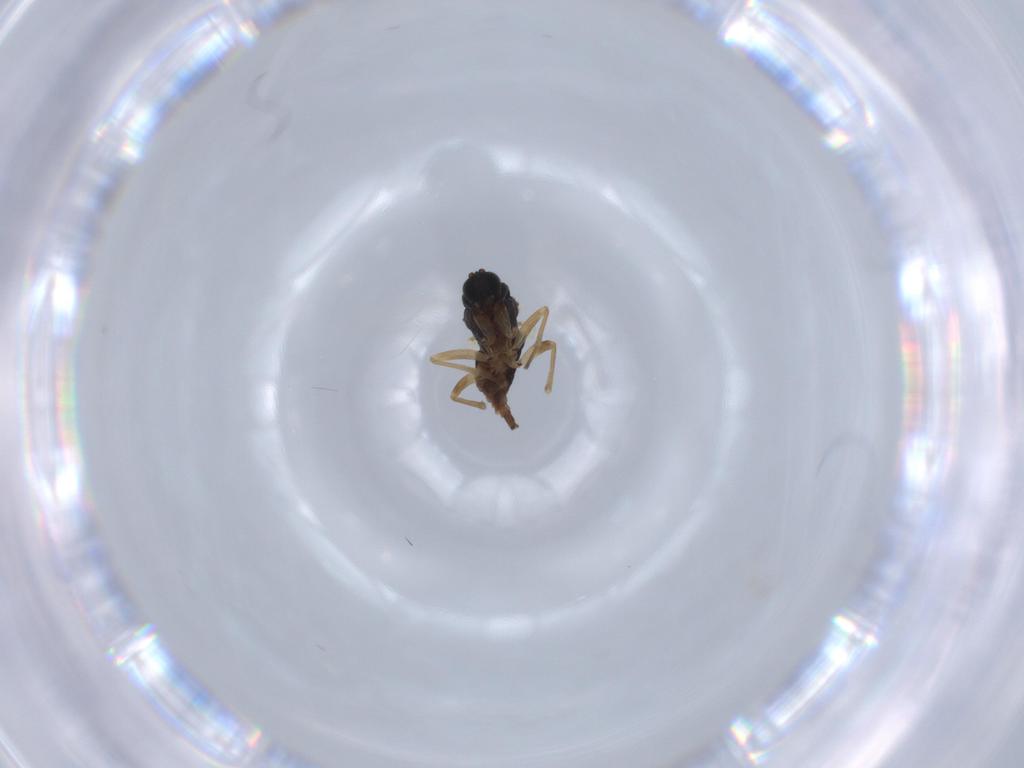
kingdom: Animalia
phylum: Arthropoda
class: Insecta
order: Diptera
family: Sciaridae
